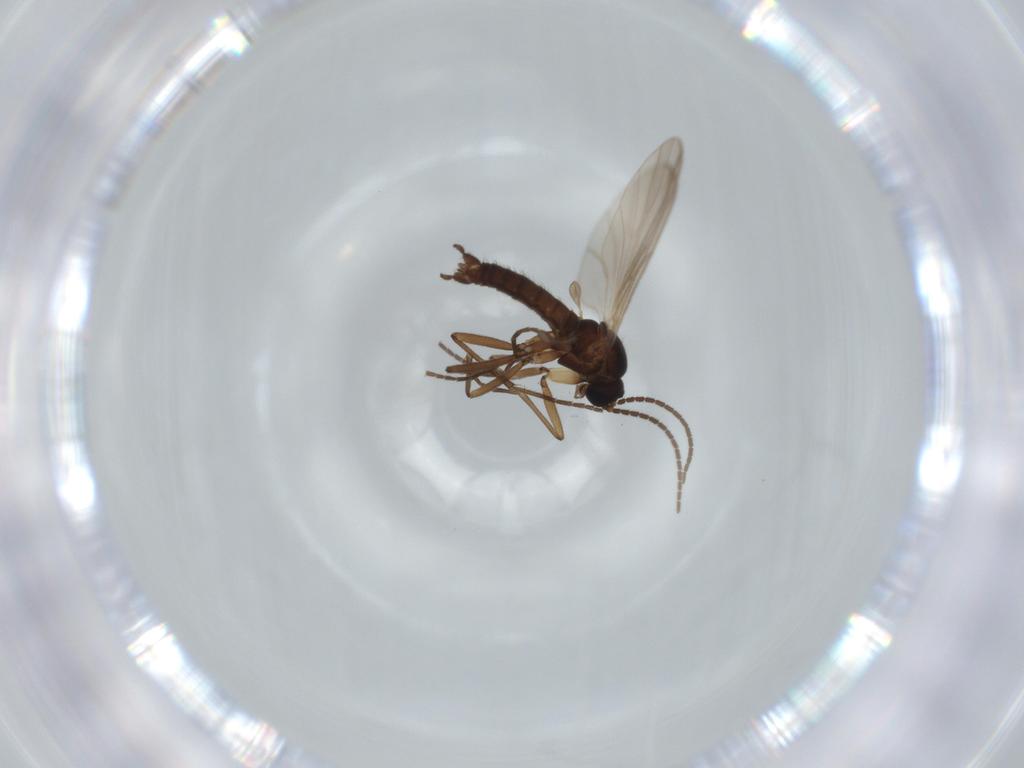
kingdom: Animalia
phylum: Arthropoda
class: Insecta
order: Diptera
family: Sciaridae
